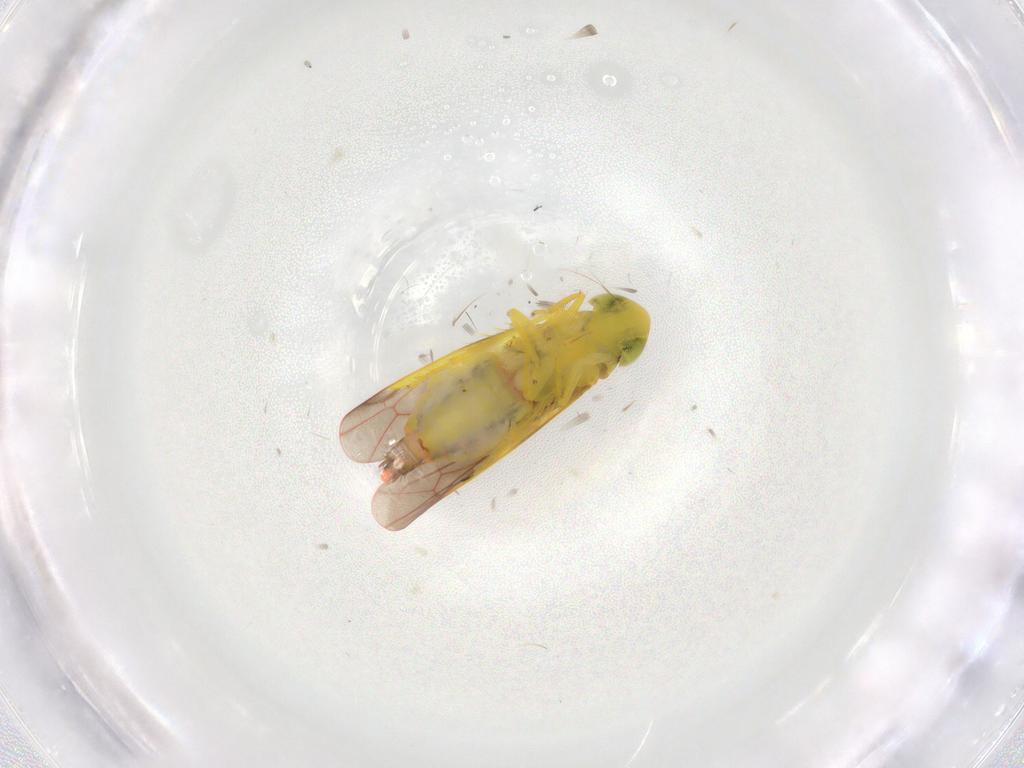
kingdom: Animalia
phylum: Arthropoda
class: Insecta
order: Hemiptera
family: Cicadellidae
